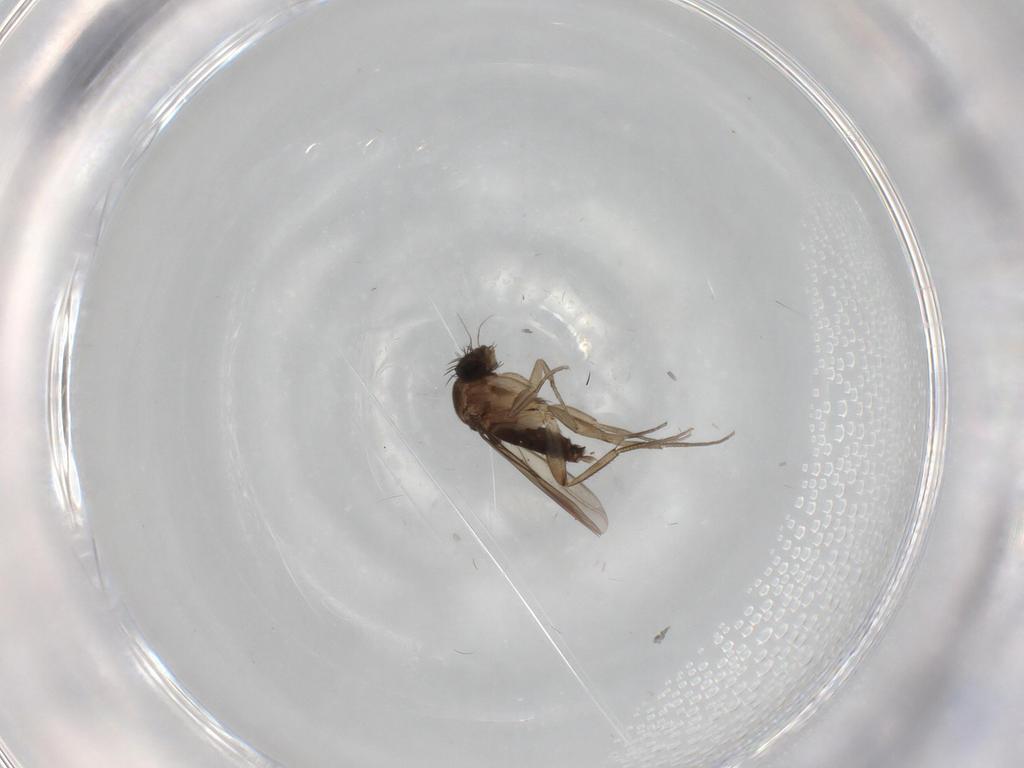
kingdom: Animalia
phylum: Arthropoda
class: Insecta
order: Diptera
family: Phoridae
